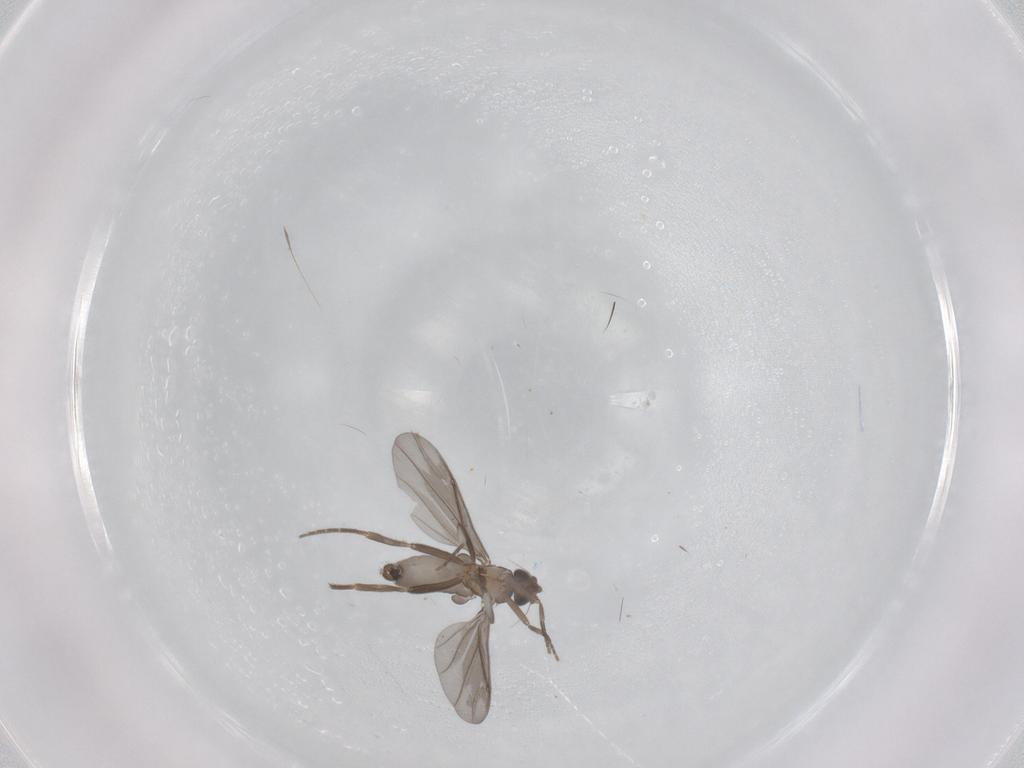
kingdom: Animalia
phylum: Arthropoda
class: Insecta
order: Diptera
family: Phoridae
